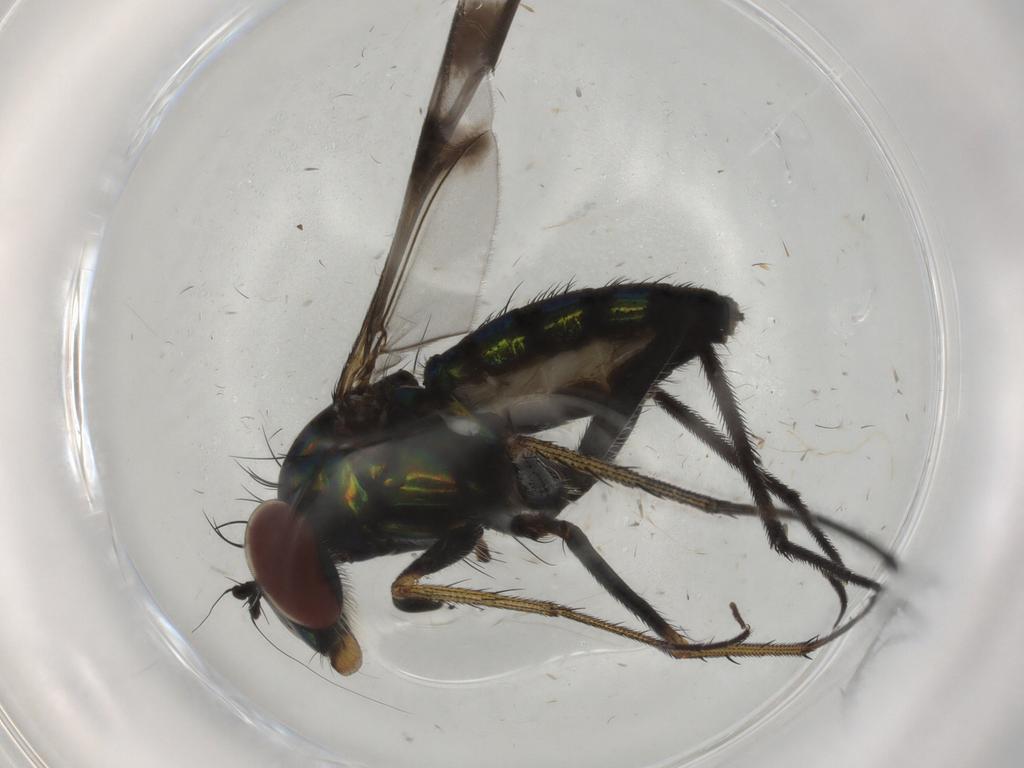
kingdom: Animalia
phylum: Arthropoda
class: Insecta
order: Diptera
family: Dolichopodidae
